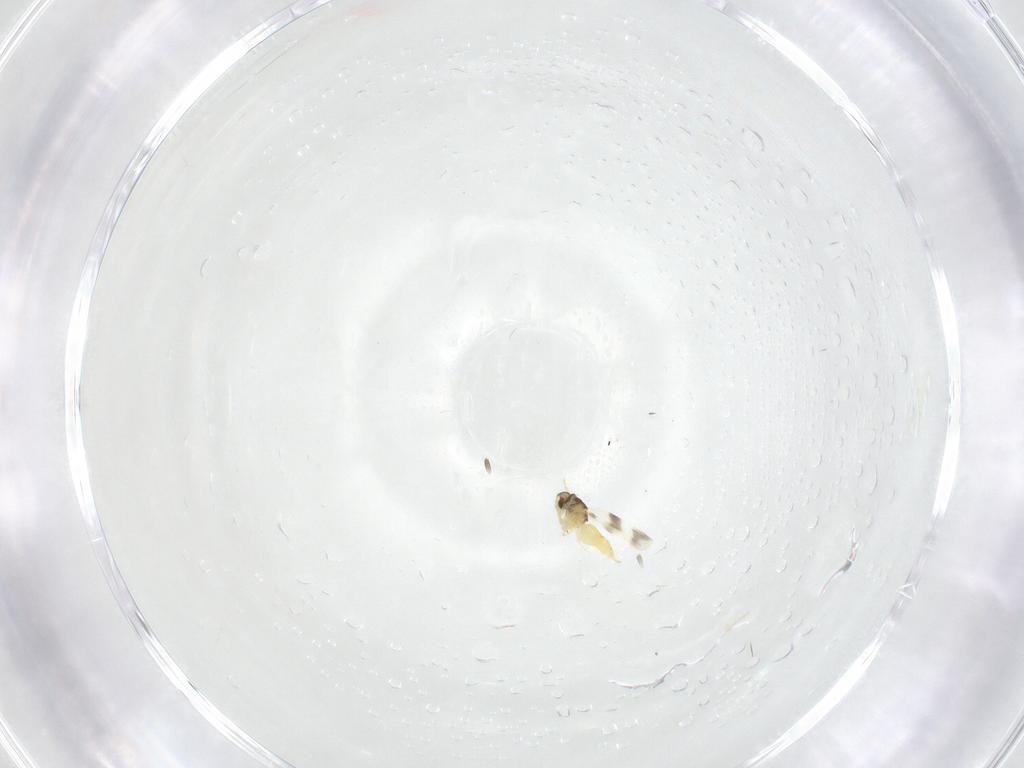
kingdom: Animalia
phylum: Arthropoda
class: Insecta
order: Hemiptera
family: Aleyrodidae
